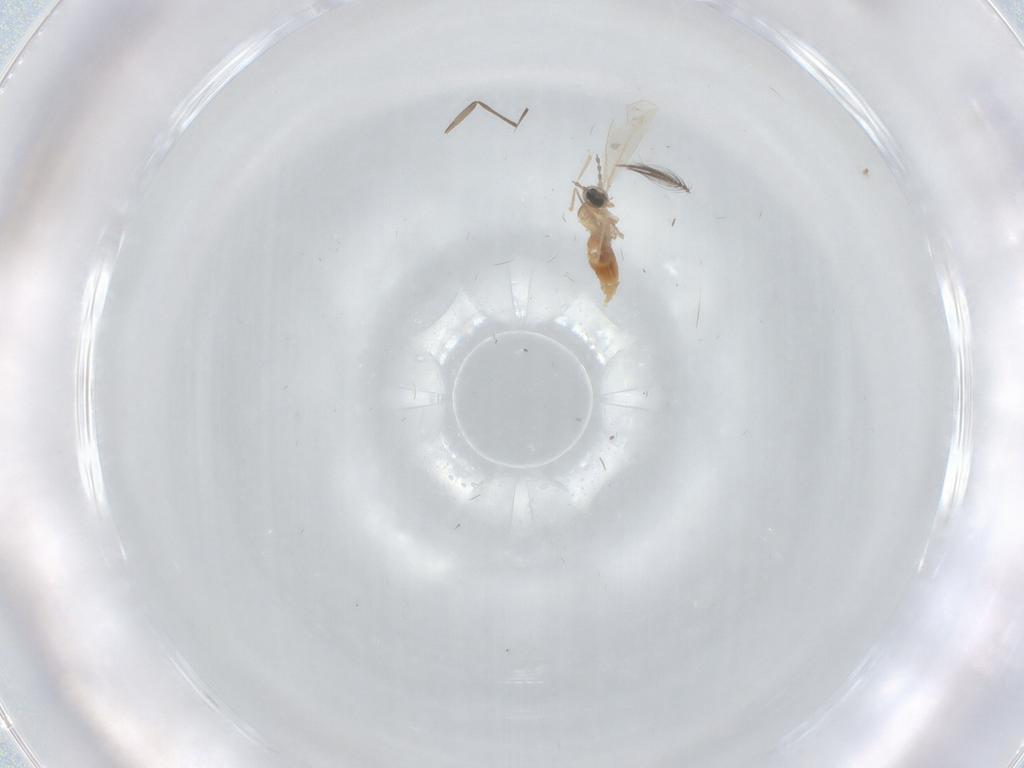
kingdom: Animalia
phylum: Arthropoda
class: Insecta
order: Diptera
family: Cecidomyiidae
